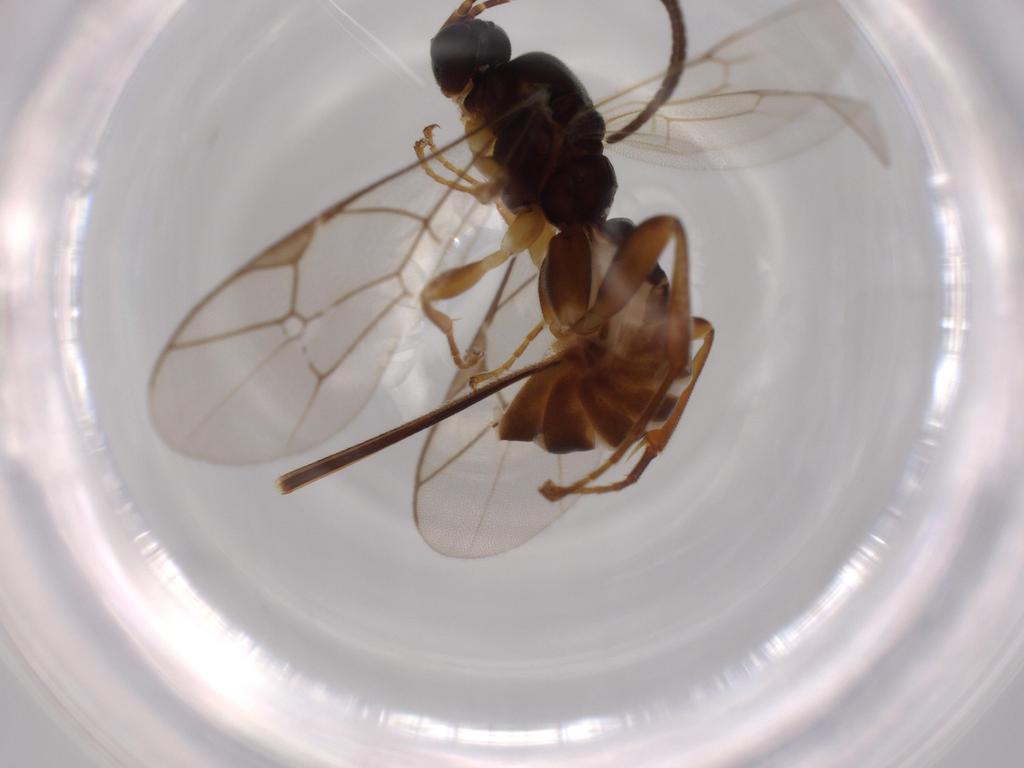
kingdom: Animalia
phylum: Arthropoda
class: Insecta
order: Hymenoptera
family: Ichneumonidae
